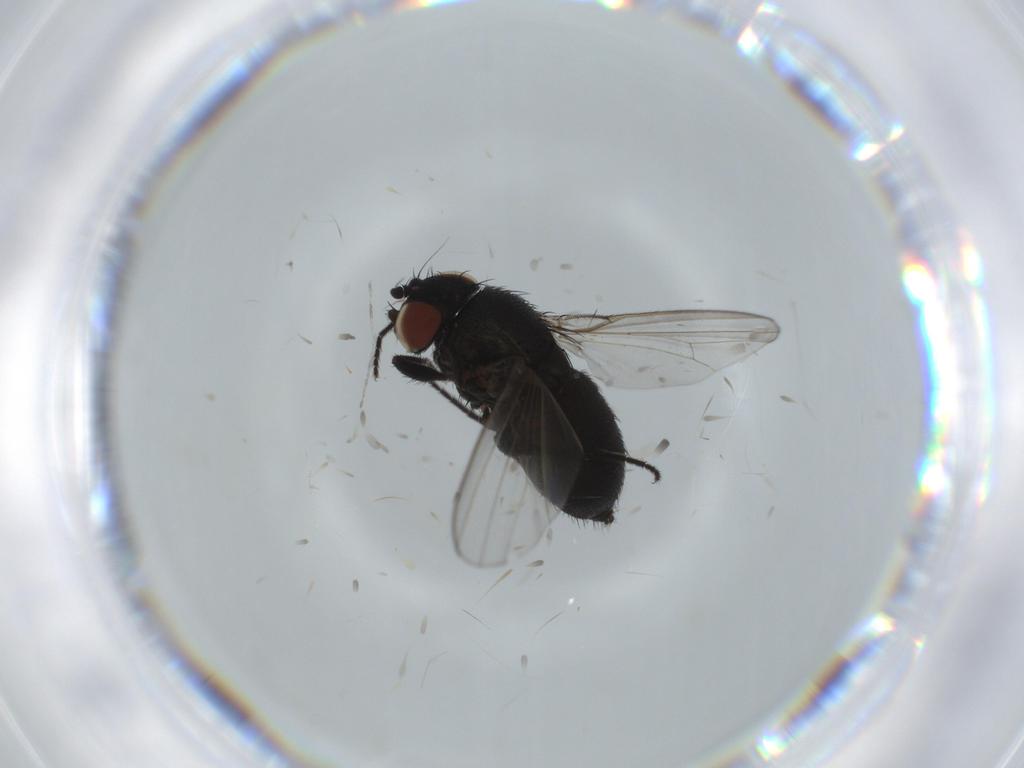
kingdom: Animalia
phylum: Arthropoda
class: Insecta
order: Diptera
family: Milichiidae
